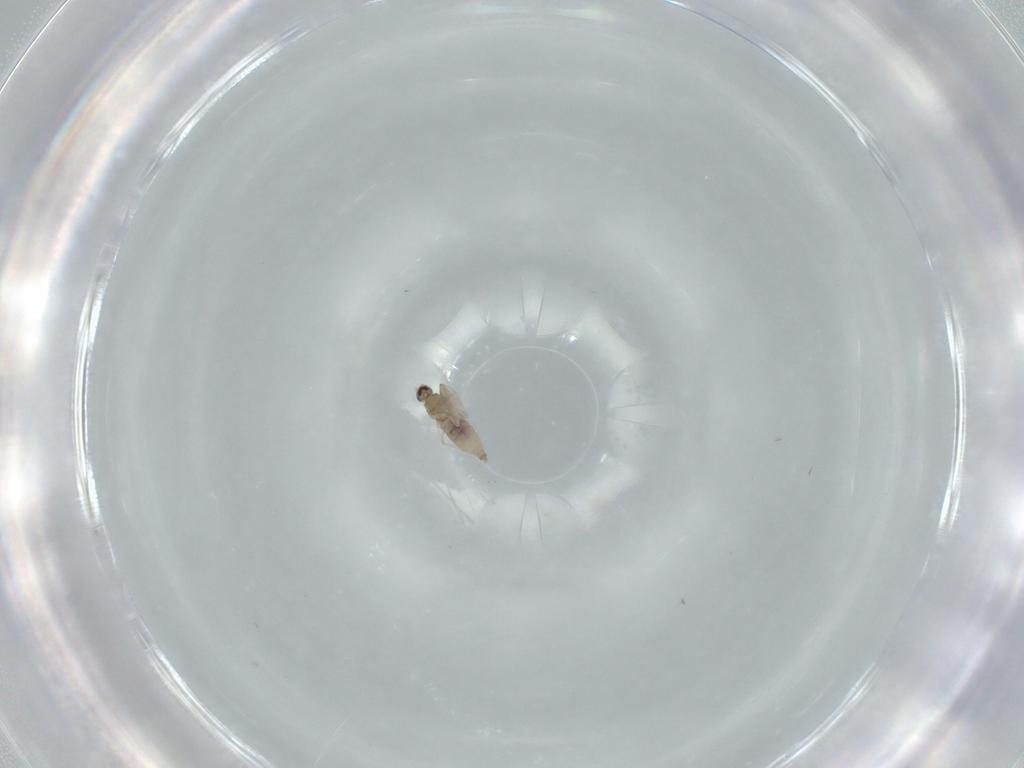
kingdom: Animalia
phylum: Arthropoda
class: Insecta
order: Diptera
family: Cecidomyiidae
